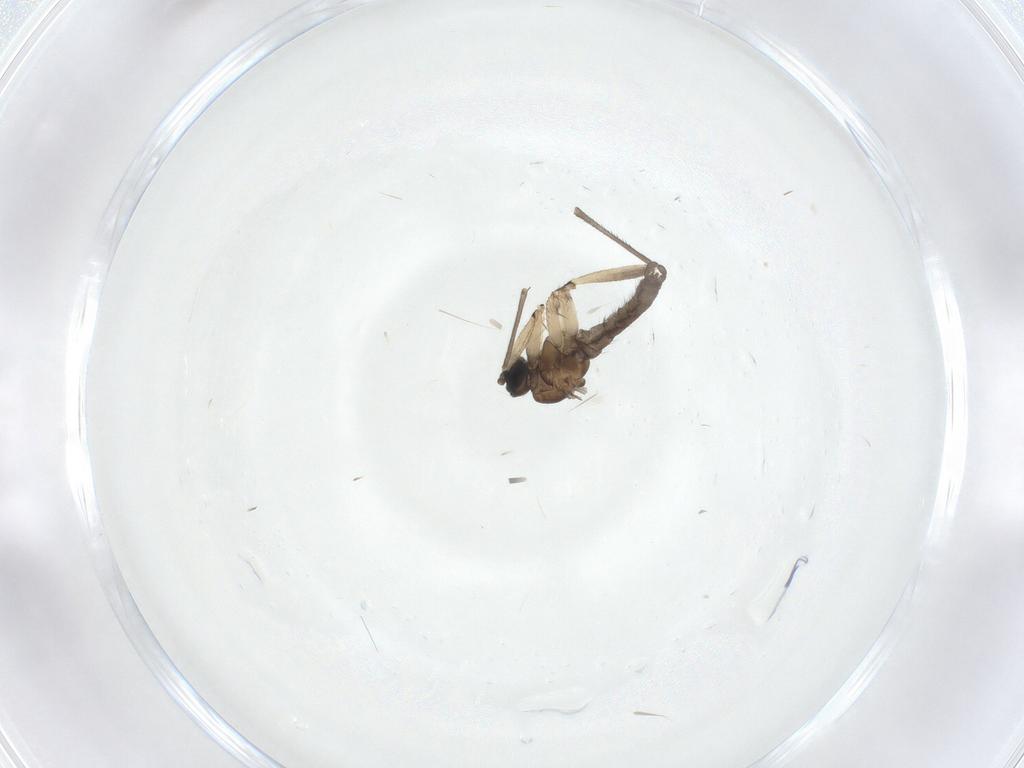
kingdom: Animalia
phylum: Arthropoda
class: Insecta
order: Diptera
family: Sciaridae
